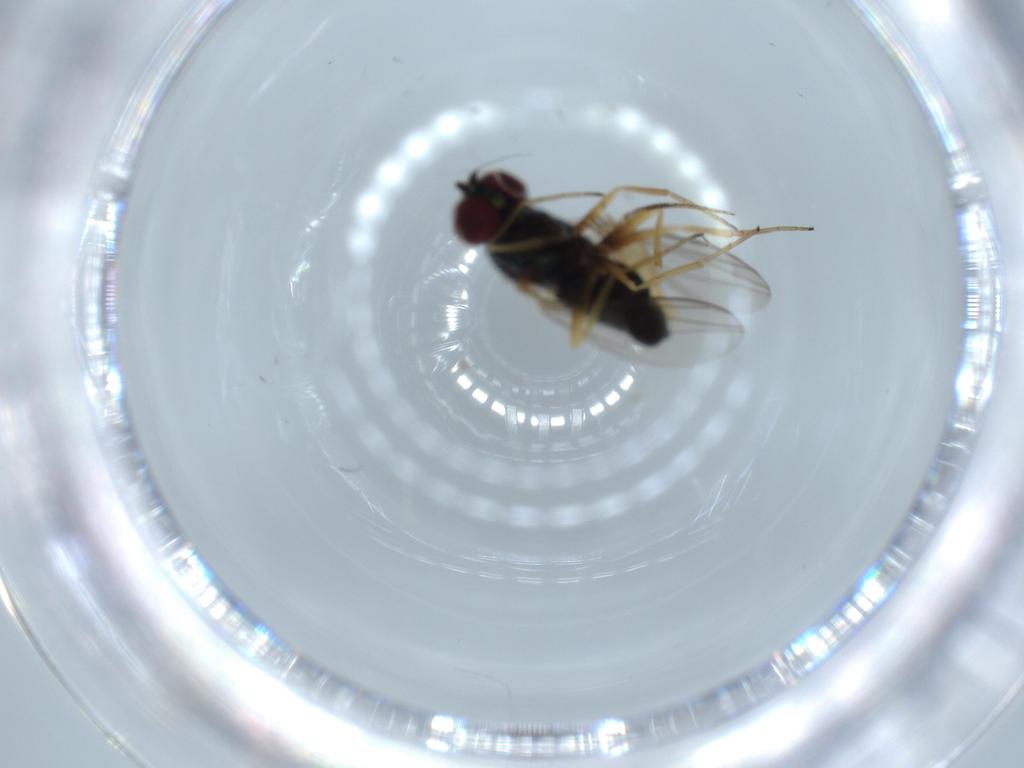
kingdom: Animalia
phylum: Arthropoda
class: Insecta
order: Diptera
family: Dolichopodidae
